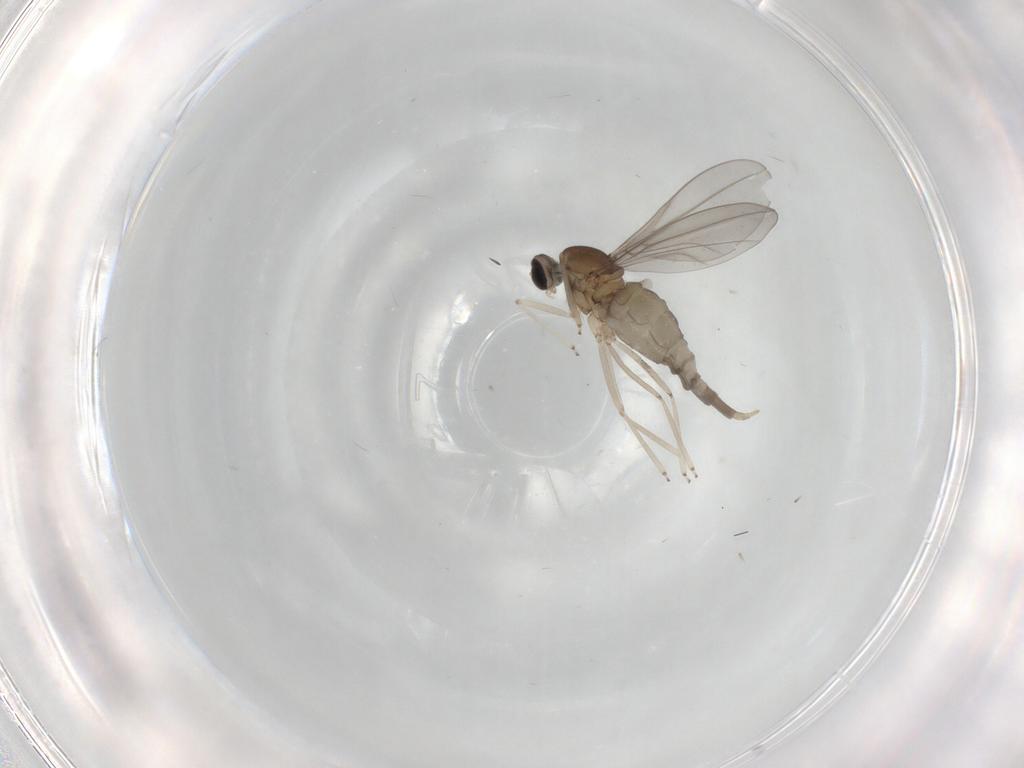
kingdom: Animalia
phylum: Arthropoda
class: Insecta
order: Diptera
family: Cecidomyiidae
